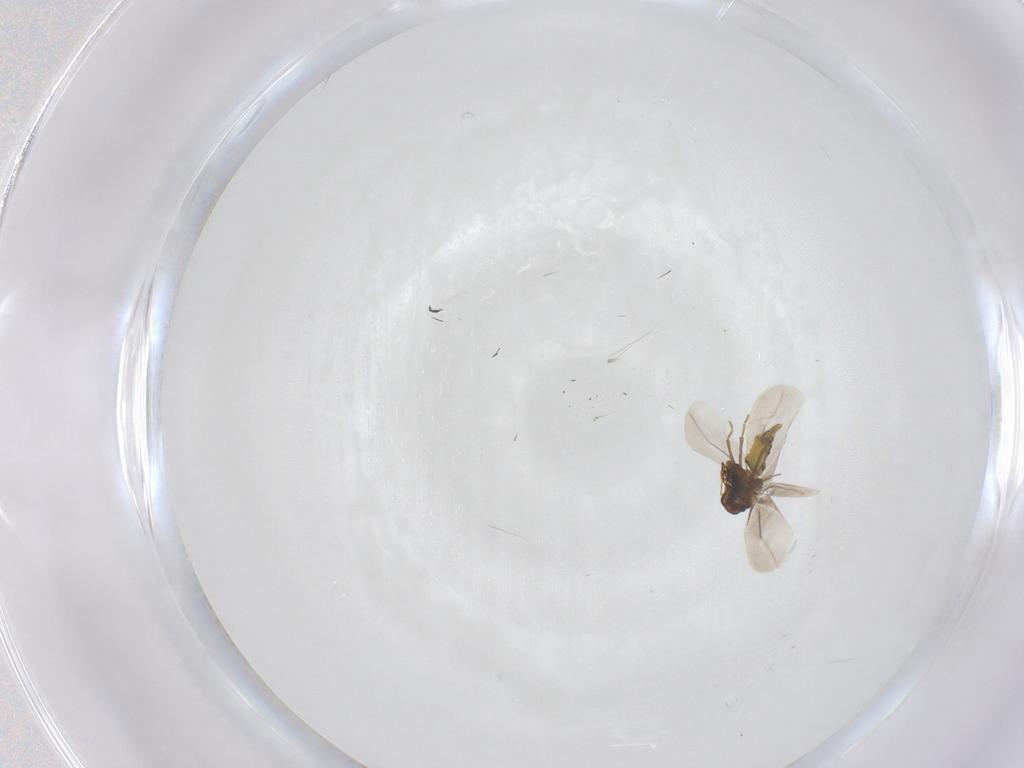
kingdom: Animalia
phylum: Arthropoda
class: Insecta
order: Hemiptera
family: Aleyrodidae
